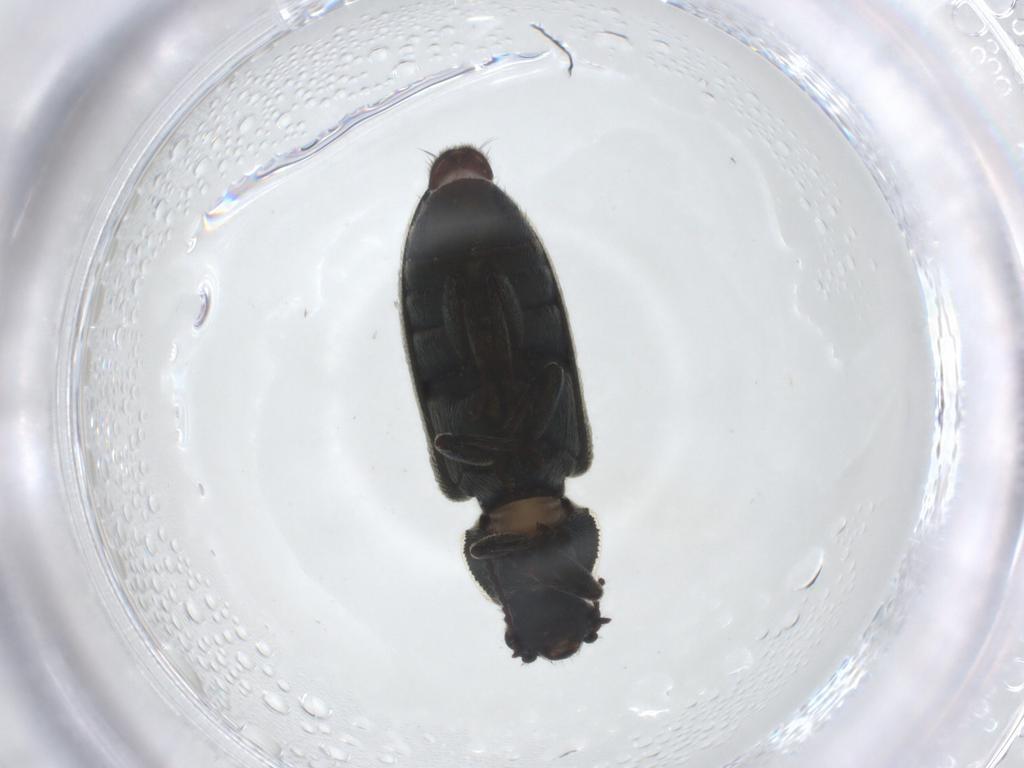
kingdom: Animalia
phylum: Arthropoda
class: Insecta
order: Coleoptera
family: Melyridae
